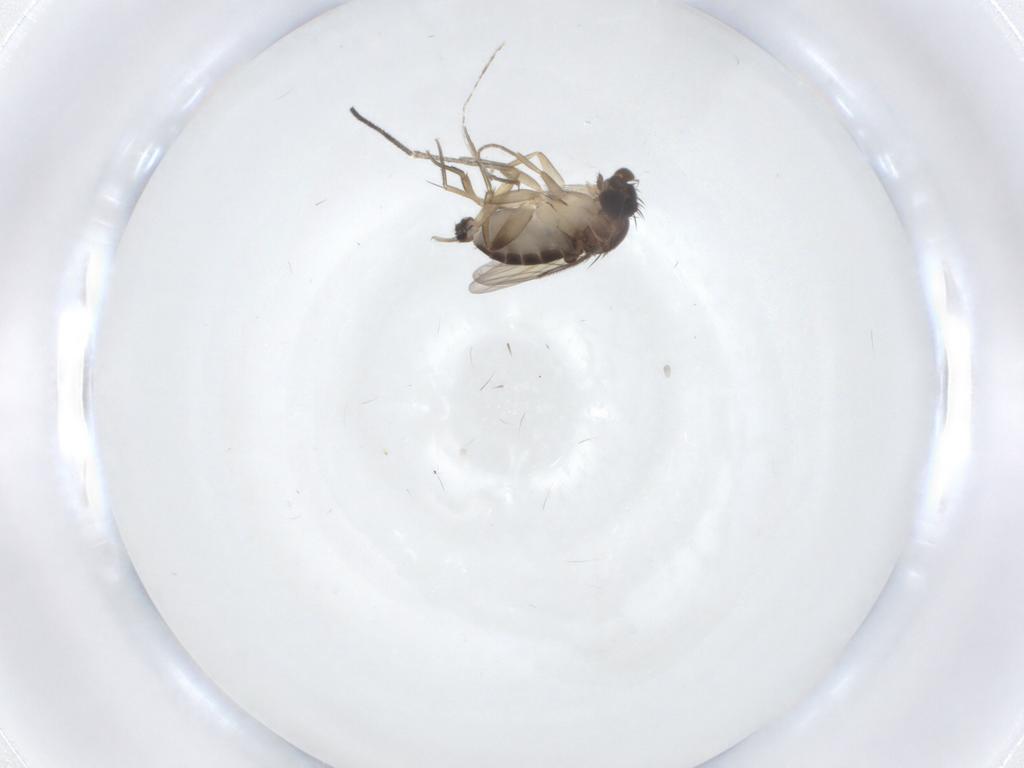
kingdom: Animalia
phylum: Arthropoda
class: Insecta
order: Diptera
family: Phoridae
